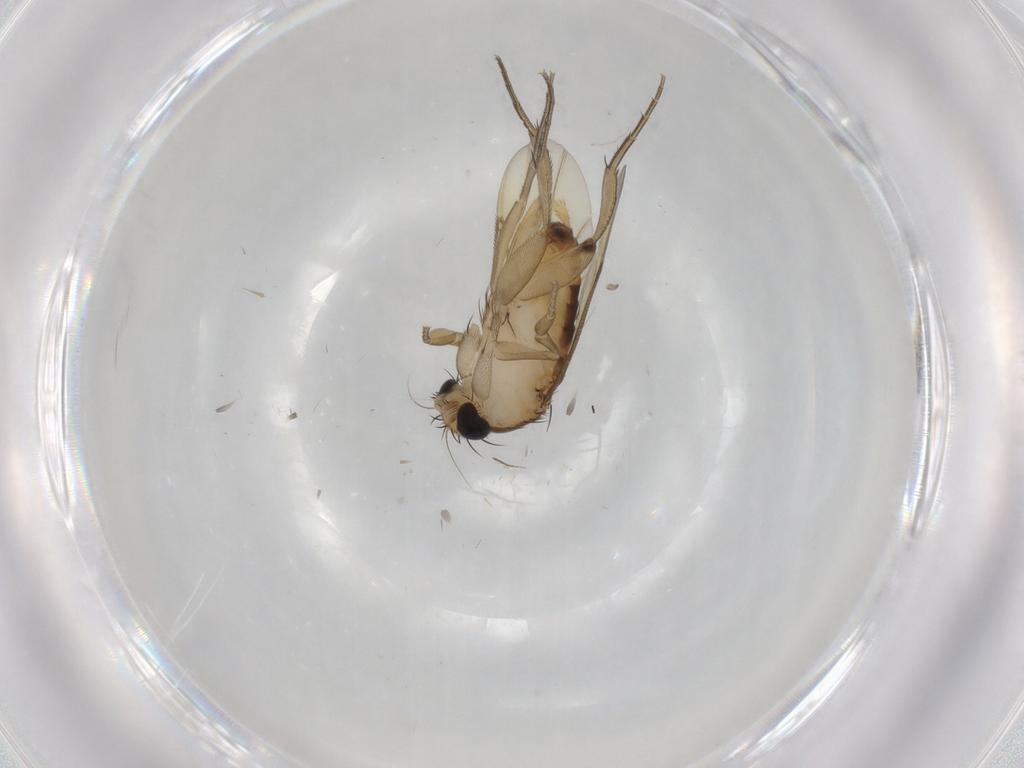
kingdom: Animalia
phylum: Arthropoda
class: Insecta
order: Diptera
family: Phoridae
